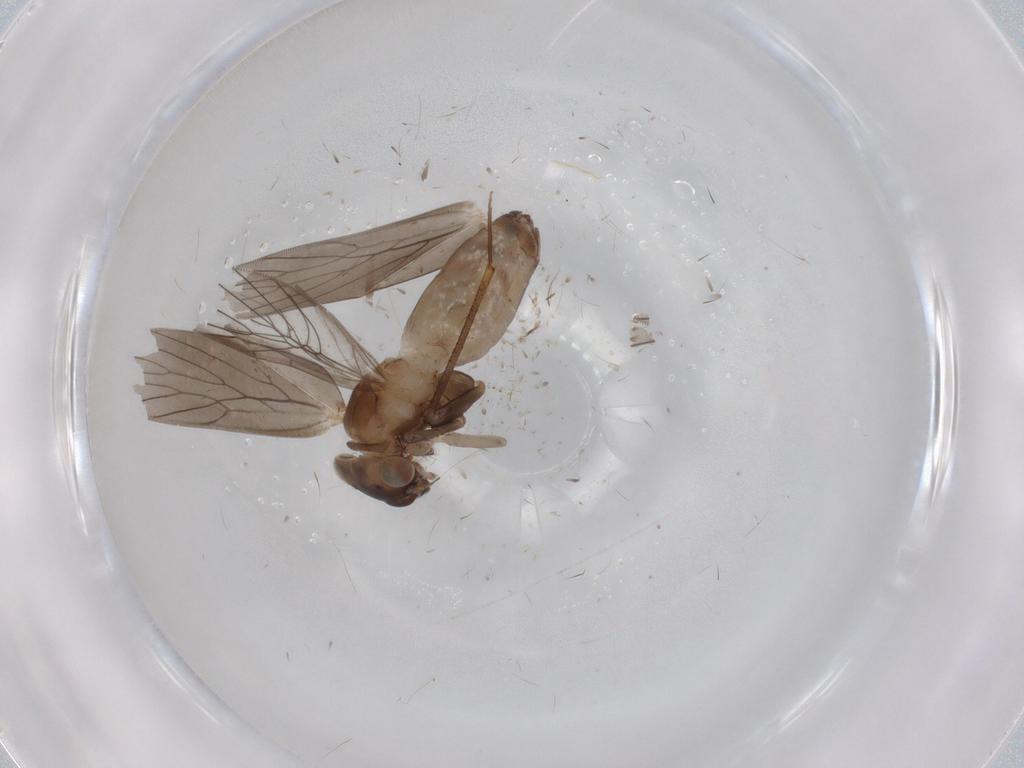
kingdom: Animalia
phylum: Arthropoda
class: Insecta
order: Psocodea
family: Lepidopsocidae
